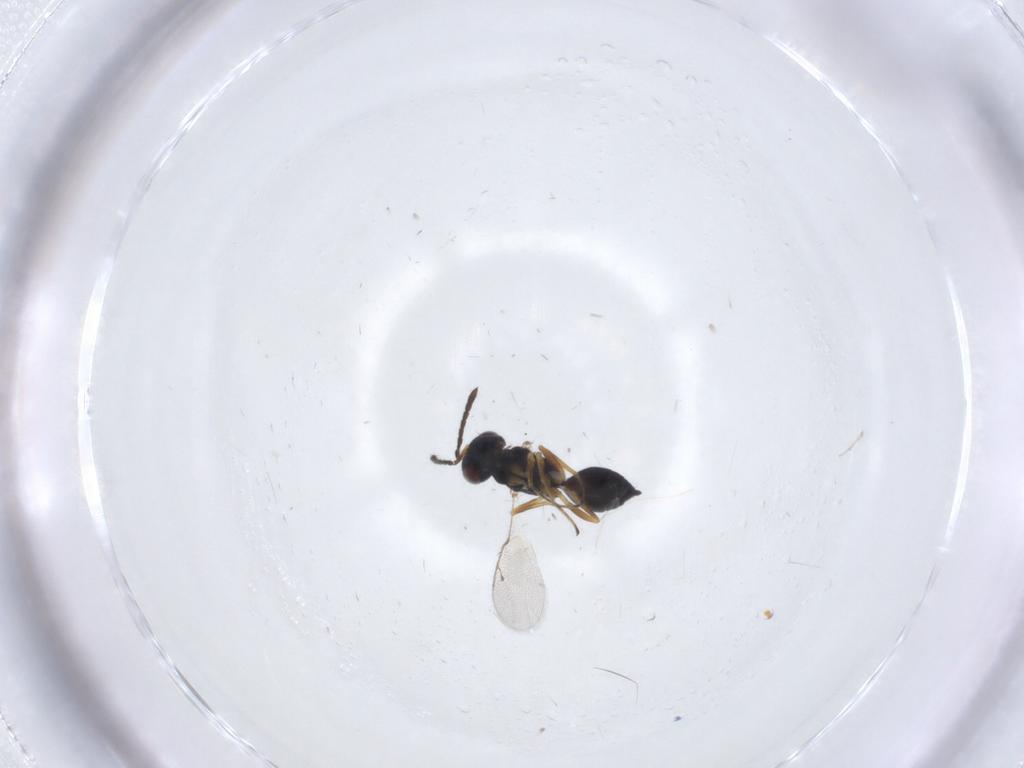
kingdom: Animalia
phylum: Arthropoda
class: Insecta
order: Hymenoptera
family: Pteromalidae
